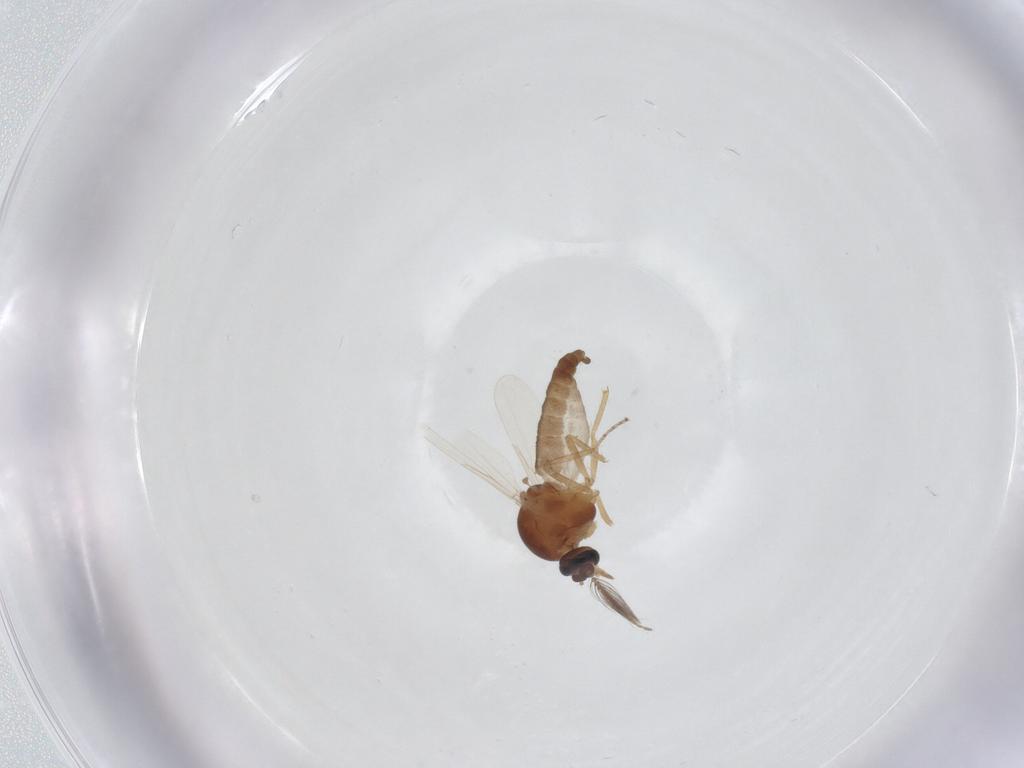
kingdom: Animalia
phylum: Arthropoda
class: Insecta
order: Diptera
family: Ceratopogonidae
